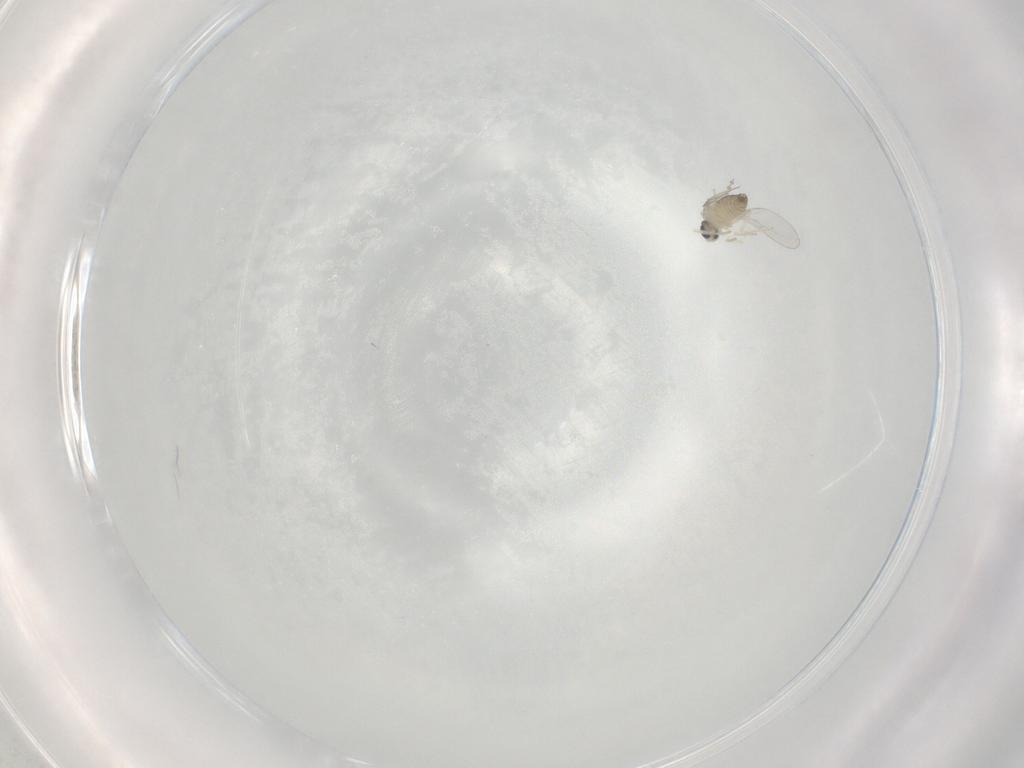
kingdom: Animalia
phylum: Arthropoda
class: Insecta
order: Diptera
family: Cecidomyiidae
